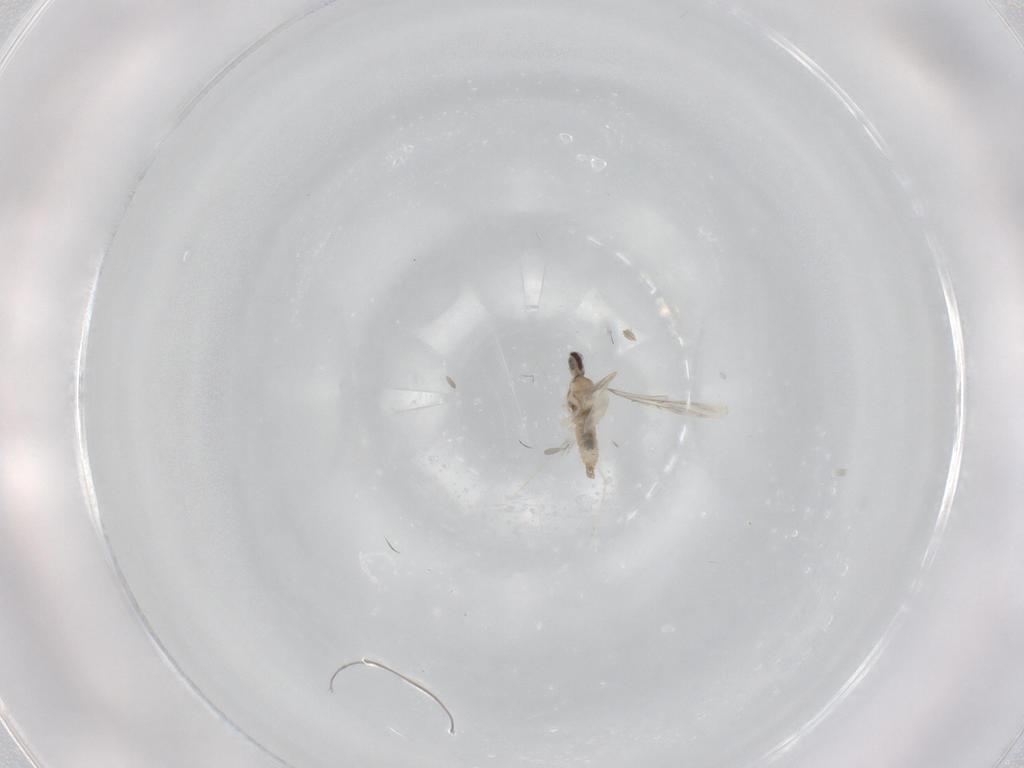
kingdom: Animalia
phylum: Arthropoda
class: Insecta
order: Diptera
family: Cecidomyiidae
